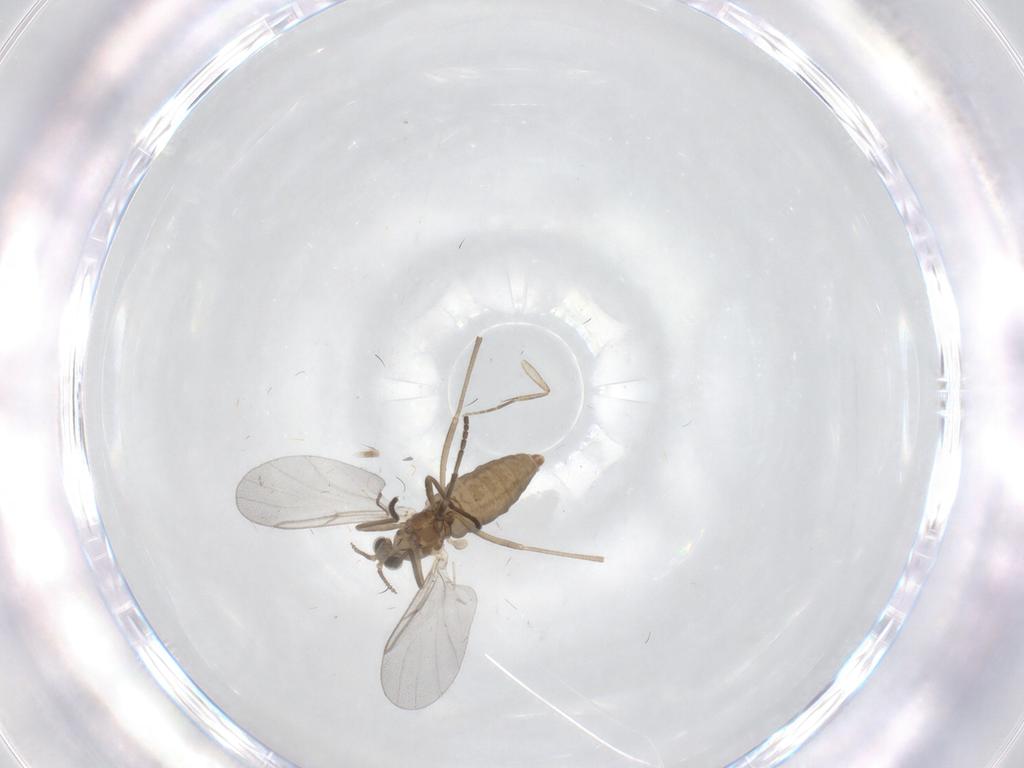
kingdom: Animalia
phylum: Arthropoda
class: Insecta
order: Diptera
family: Cecidomyiidae
